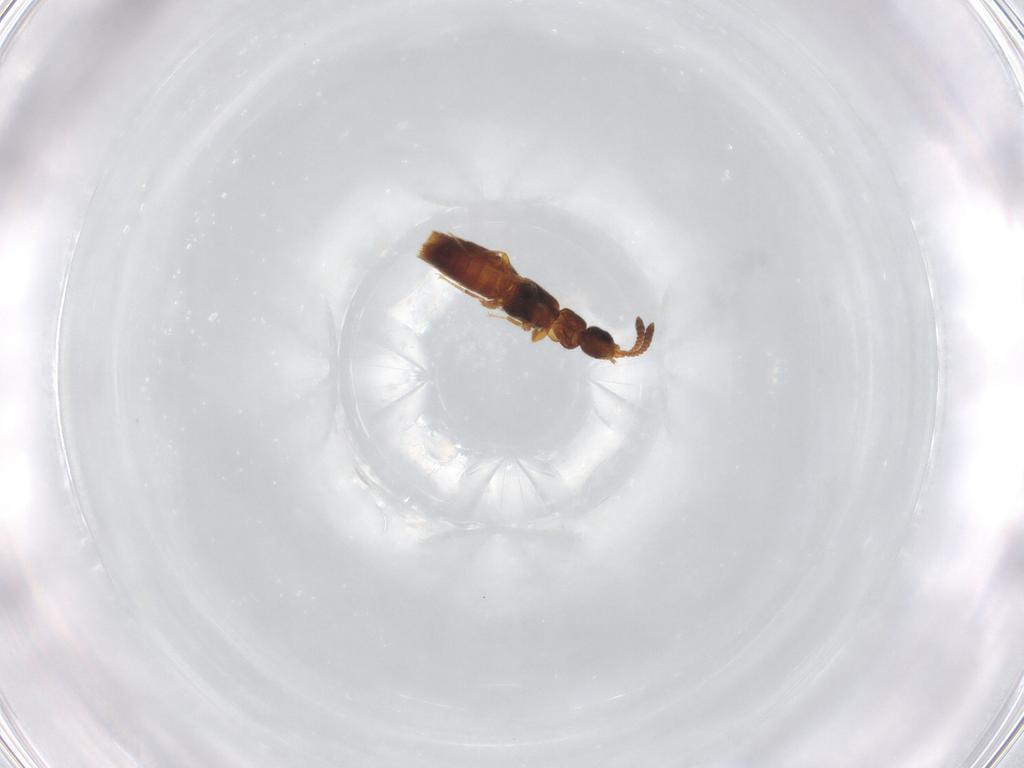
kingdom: Animalia
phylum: Arthropoda
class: Insecta
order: Coleoptera
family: Staphylinidae
